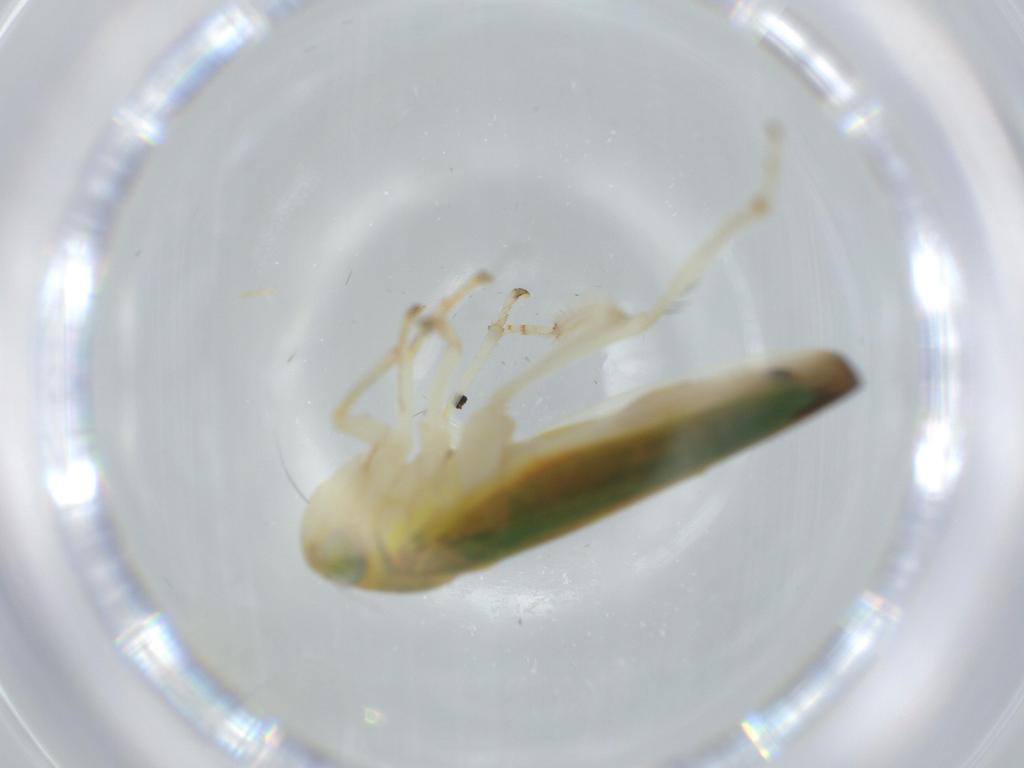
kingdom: Animalia
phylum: Arthropoda
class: Insecta
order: Hemiptera
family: Cicadellidae
